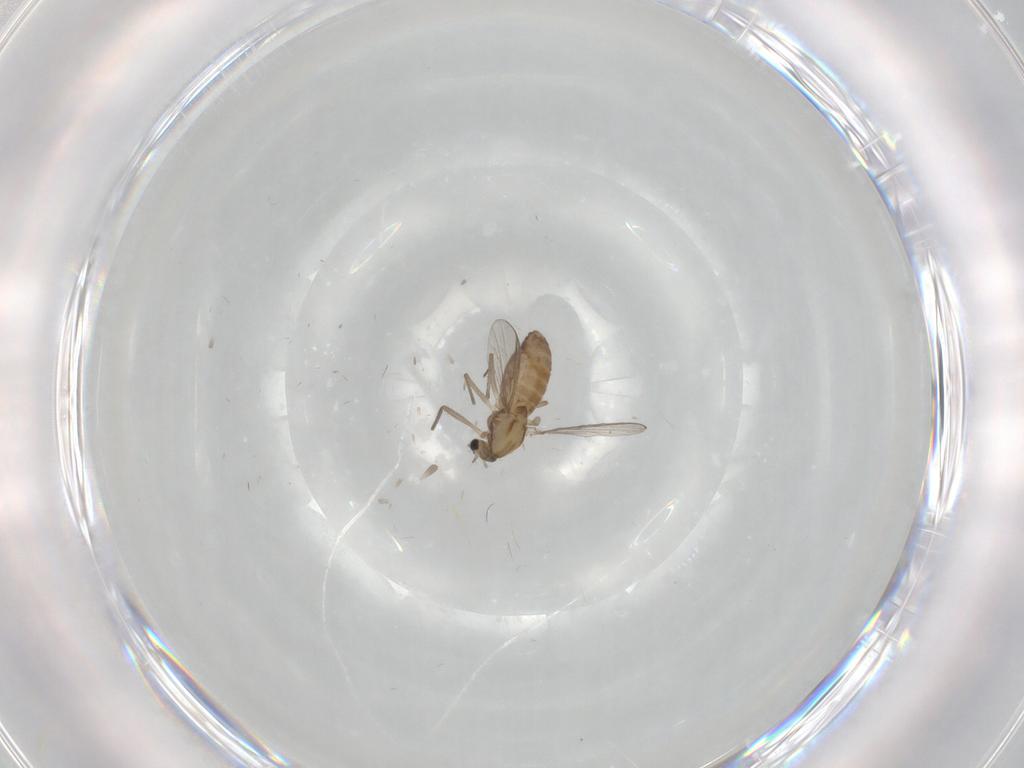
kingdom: Animalia
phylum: Arthropoda
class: Insecta
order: Diptera
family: Chironomidae
